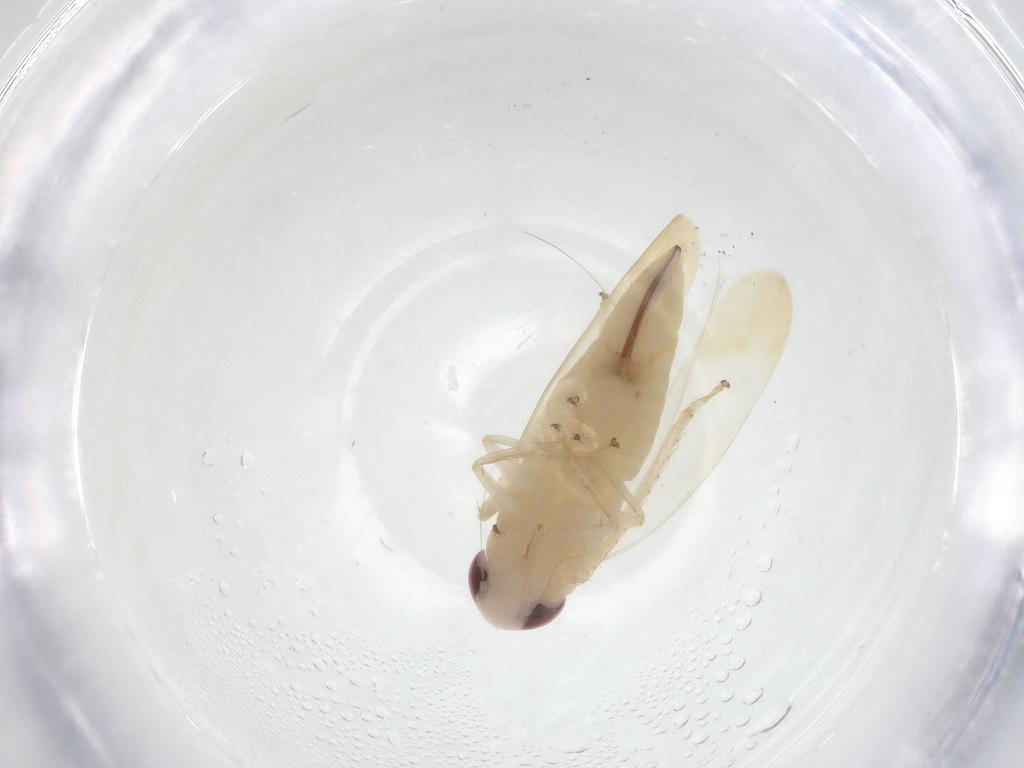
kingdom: Animalia
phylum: Arthropoda
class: Insecta
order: Hemiptera
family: Cicadellidae
